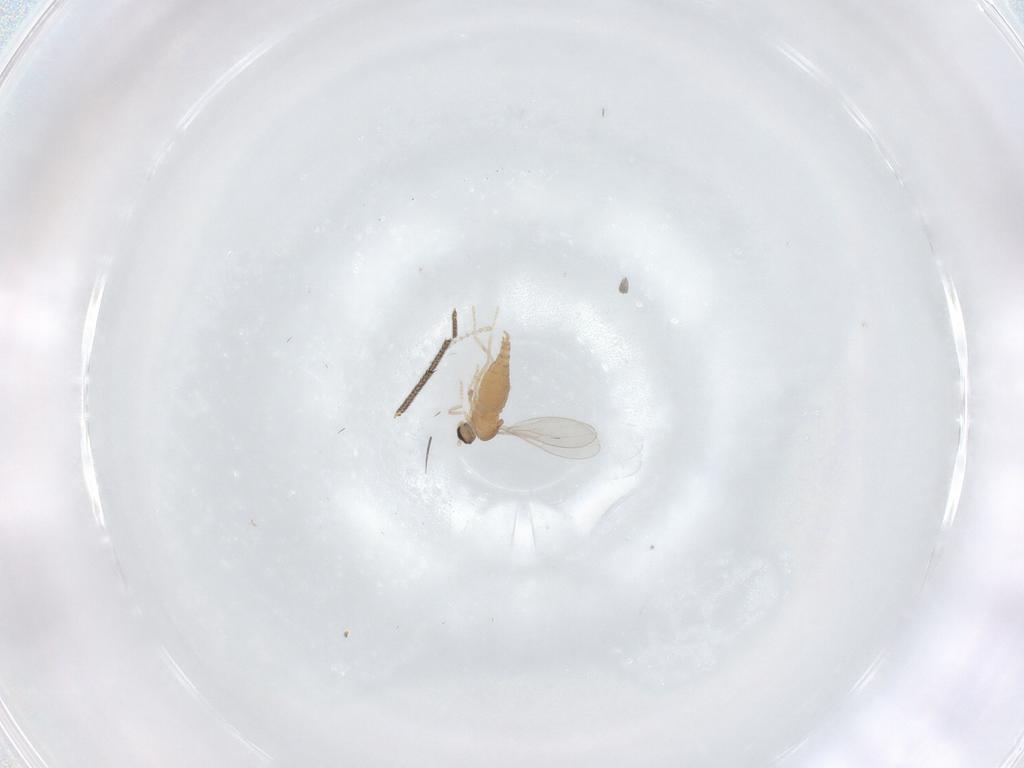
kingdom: Animalia
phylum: Arthropoda
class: Insecta
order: Diptera
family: Cecidomyiidae
